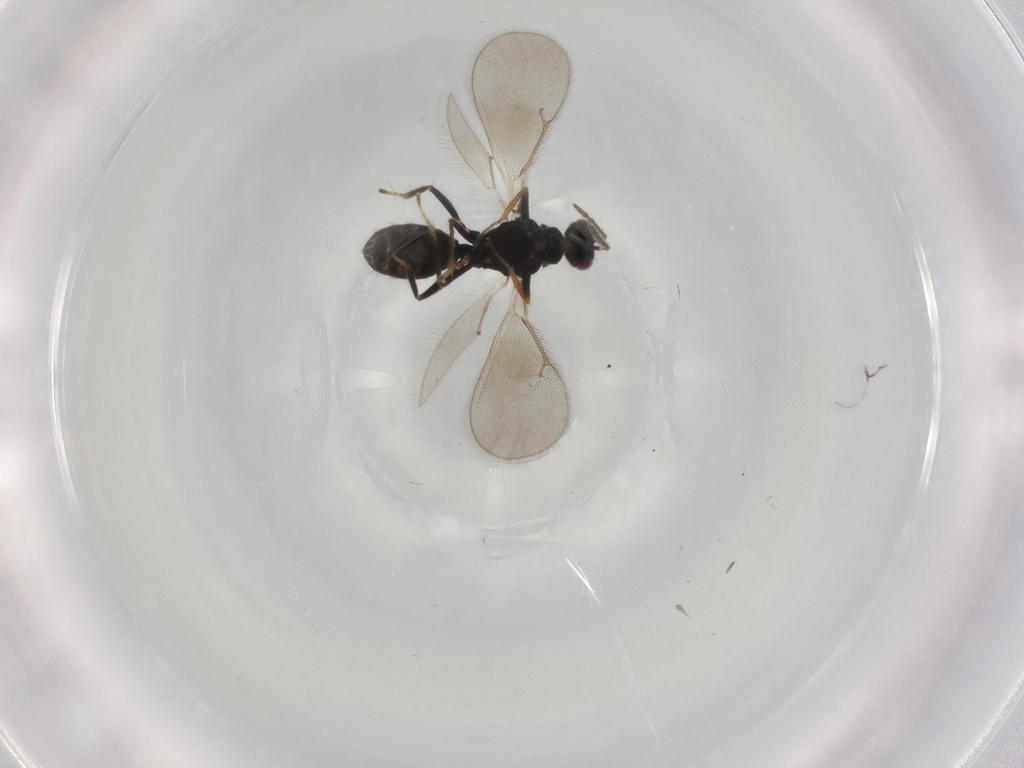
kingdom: Animalia
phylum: Arthropoda
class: Insecta
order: Hymenoptera
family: Eulophidae
